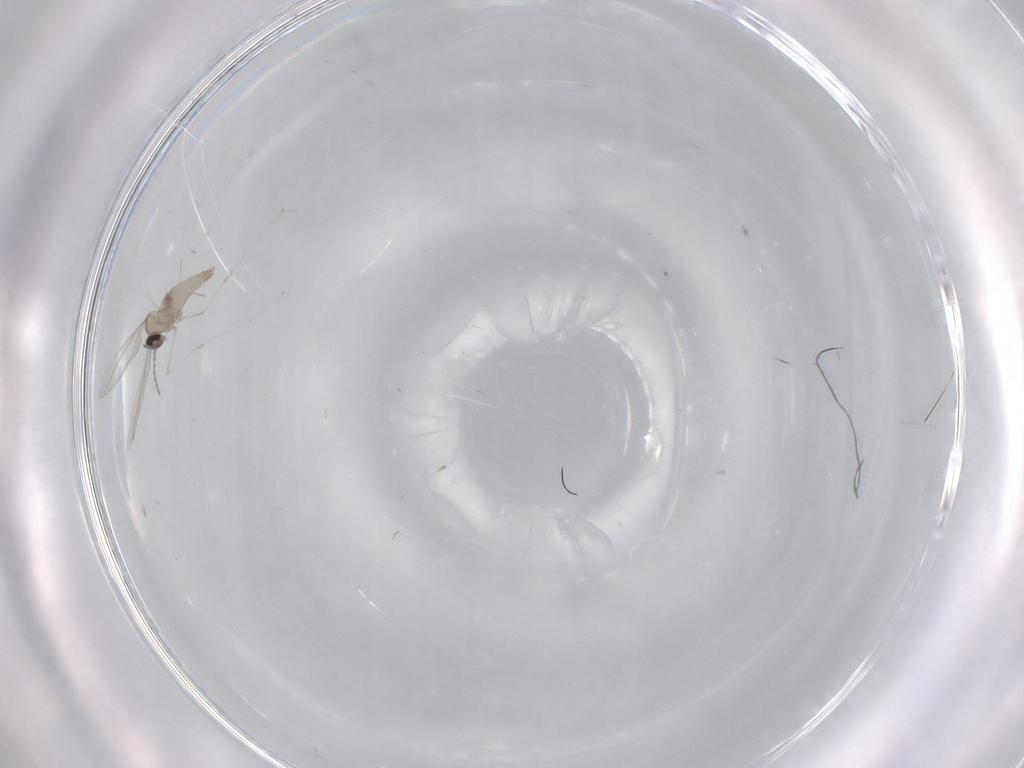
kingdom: Animalia
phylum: Arthropoda
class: Insecta
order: Diptera
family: Cecidomyiidae
